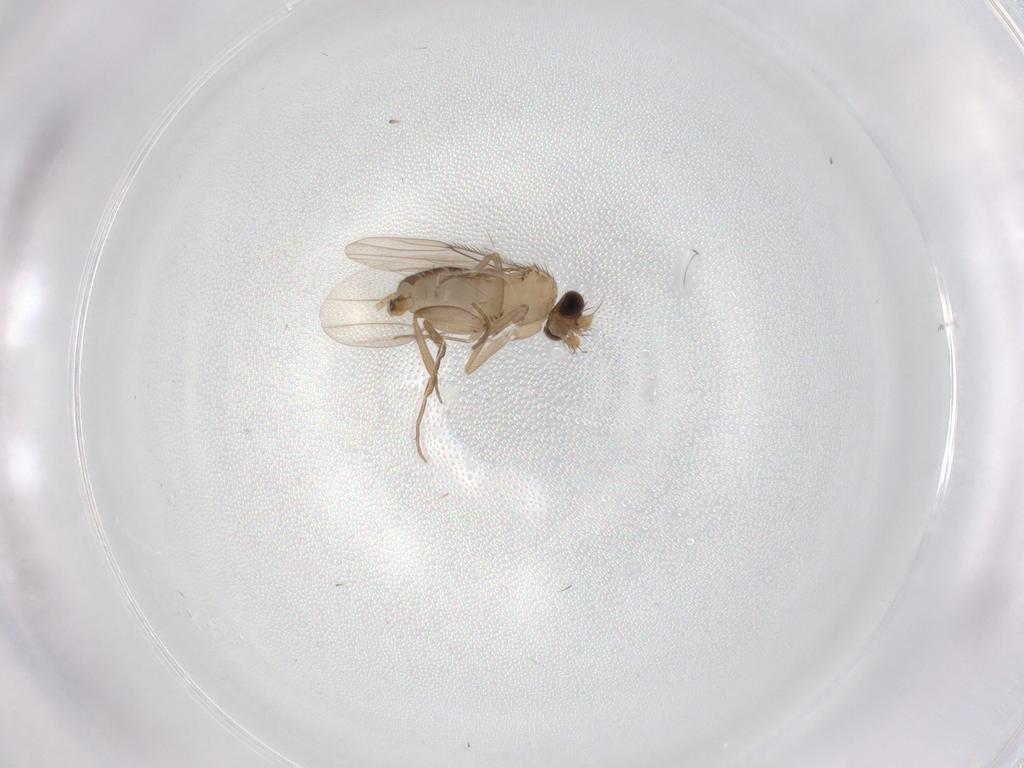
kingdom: Animalia
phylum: Arthropoda
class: Insecta
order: Diptera
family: Psychodidae
